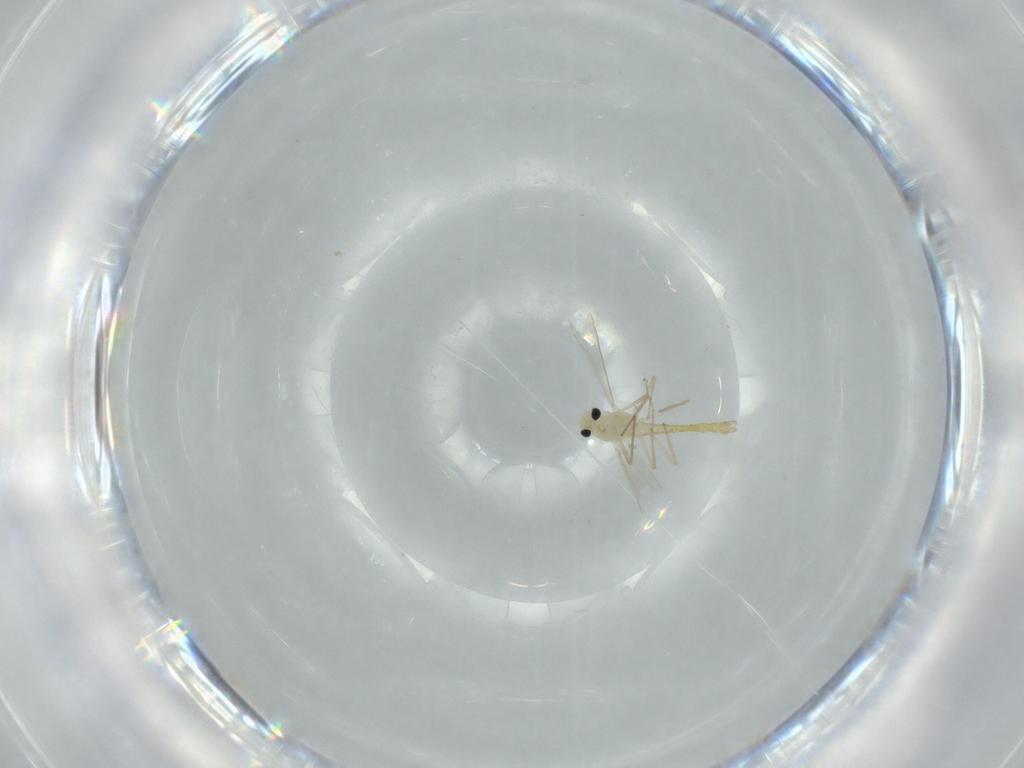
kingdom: Animalia
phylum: Arthropoda
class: Insecta
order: Diptera
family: Chironomidae
